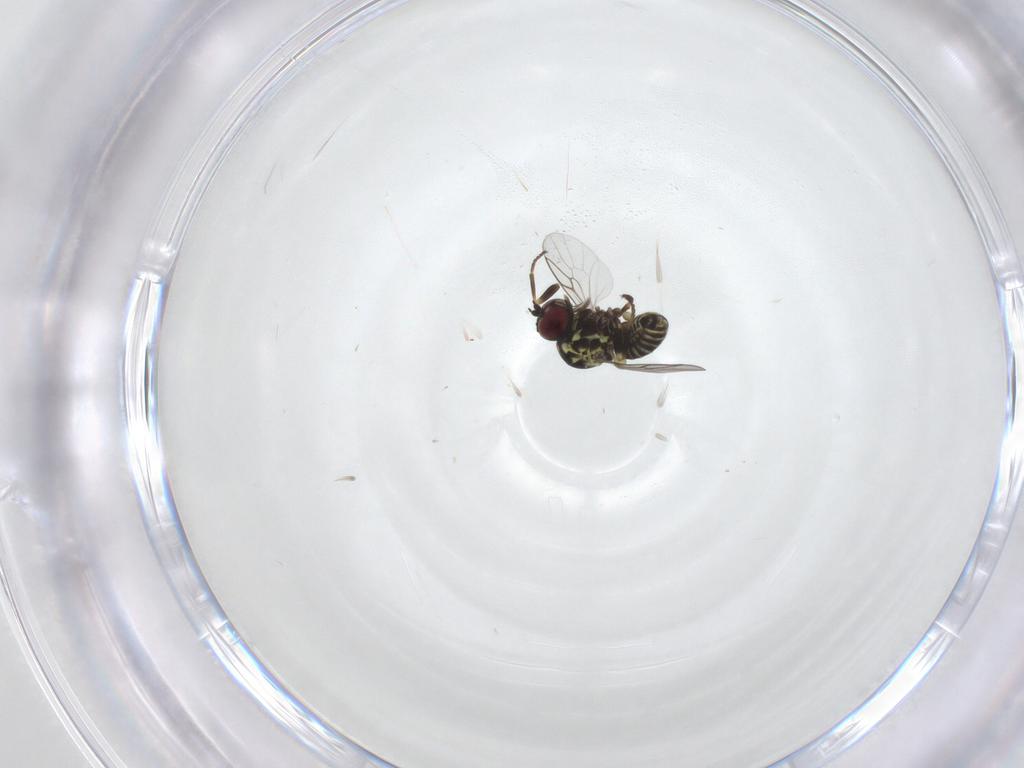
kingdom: Animalia
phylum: Arthropoda
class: Insecta
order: Diptera
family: Mythicomyiidae
